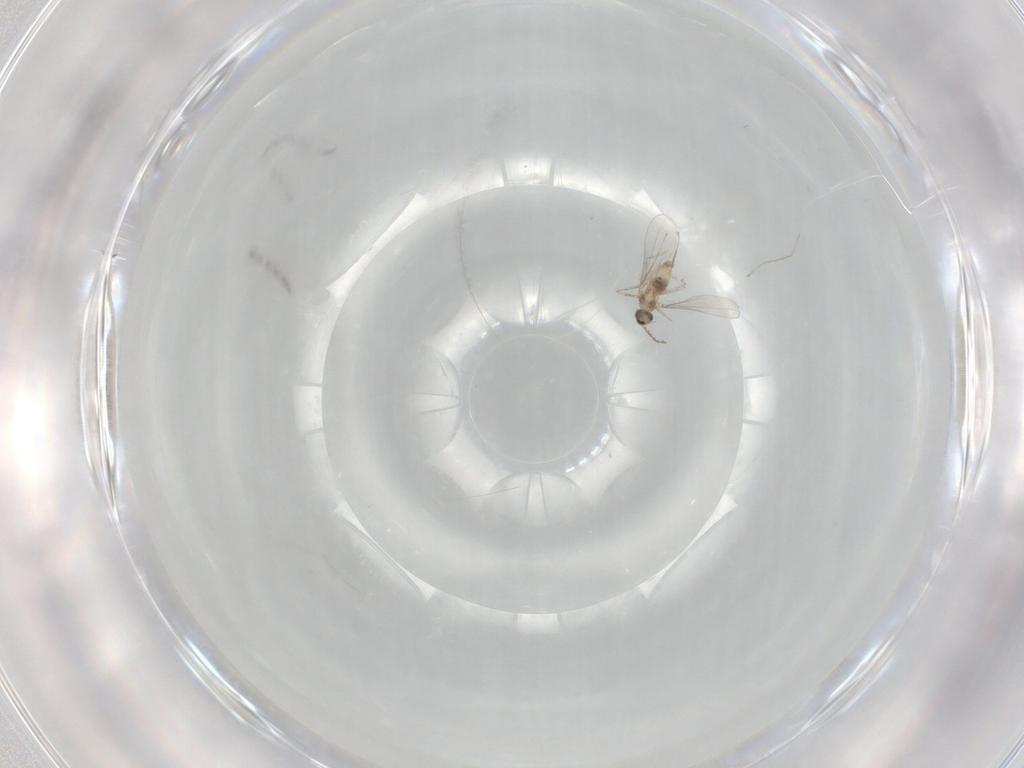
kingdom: Animalia
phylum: Arthropoda
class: Insecta
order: Diptera
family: Cecidomyiidae
